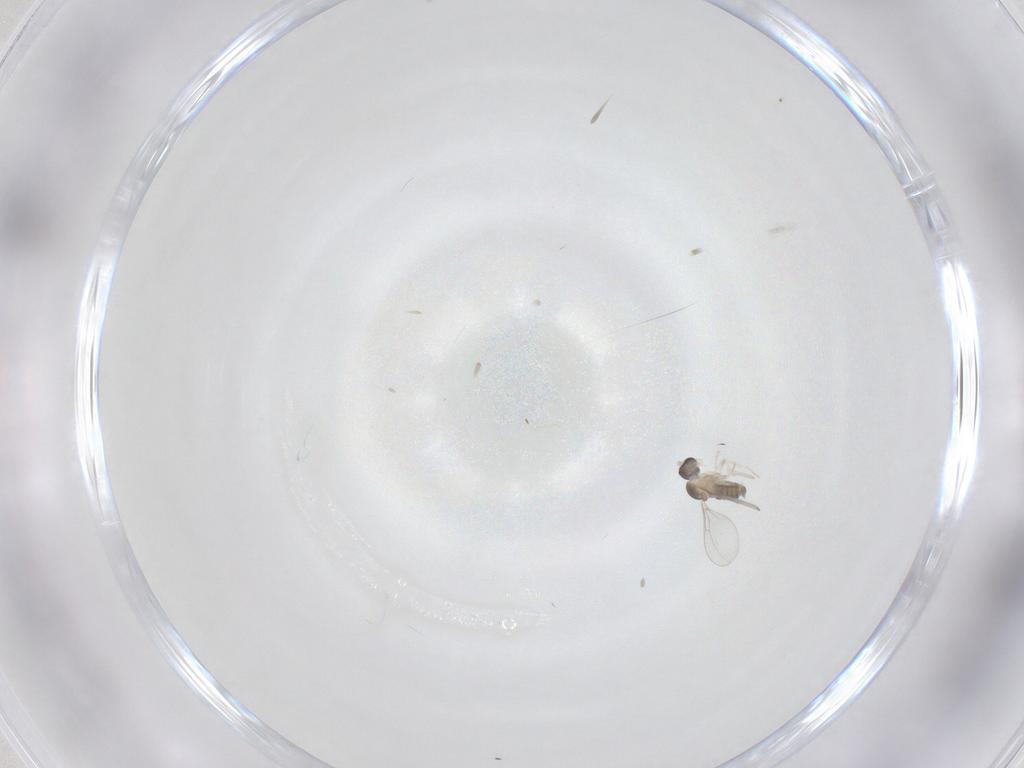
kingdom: Animalia
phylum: Arthropoda
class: Insecta
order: Diptera
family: Cecidomyiidae
